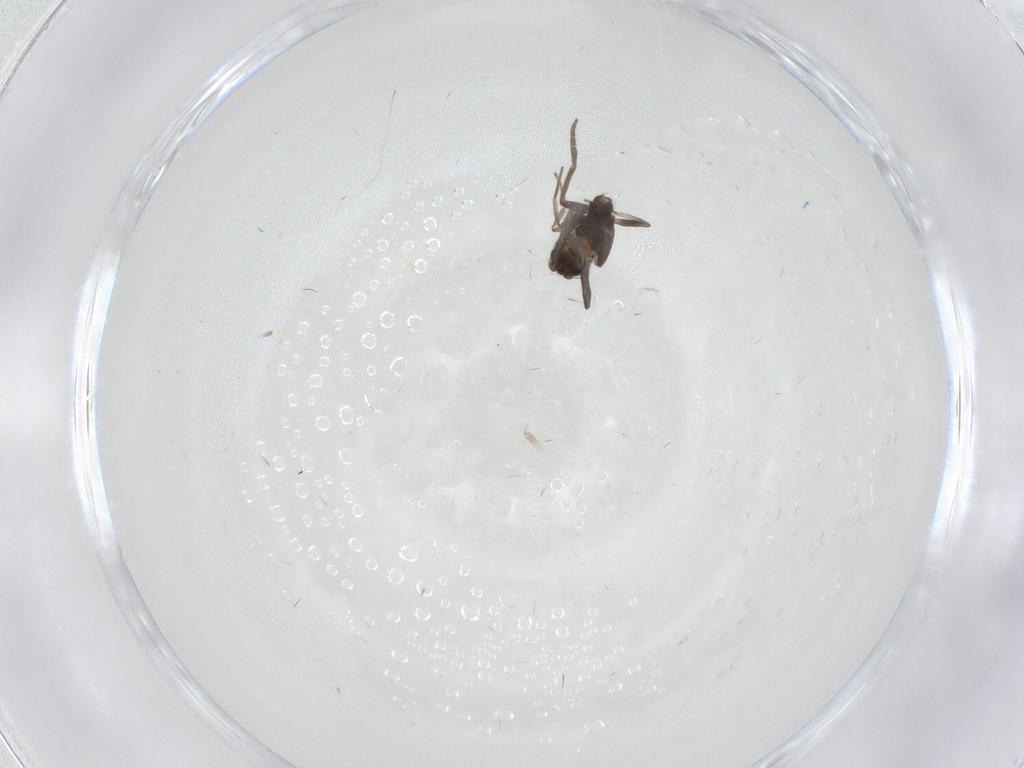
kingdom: Animalia
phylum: Arthropoda
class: Insecta
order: Diptera
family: Phoridae
